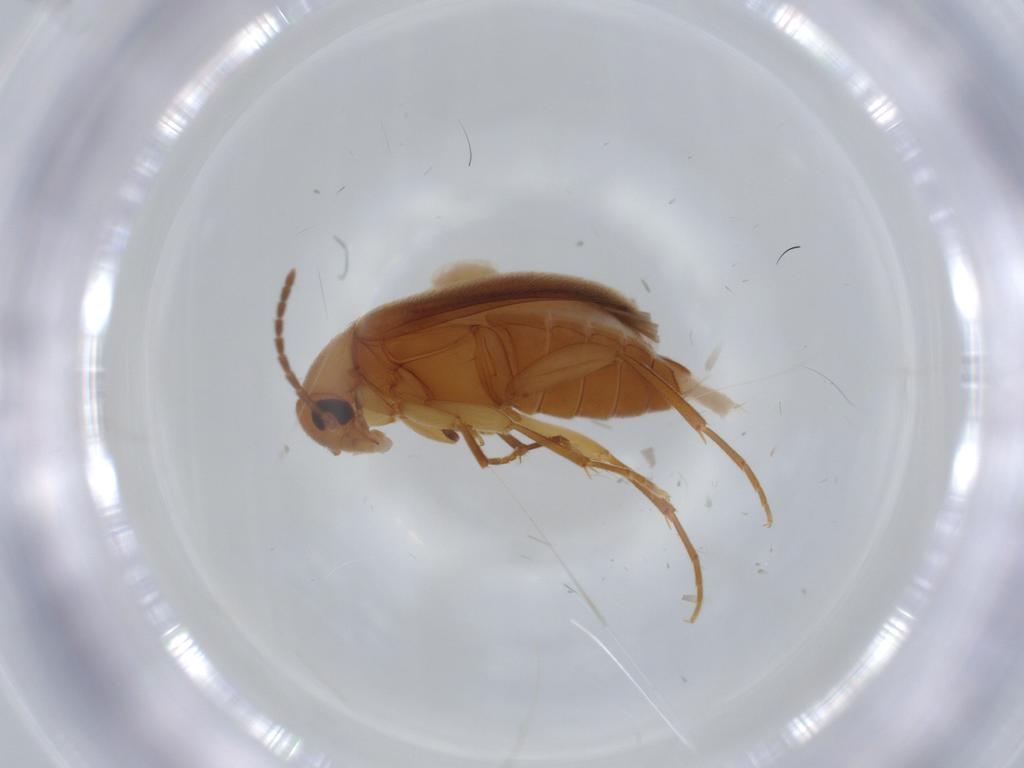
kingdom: Animalia
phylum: Arthropoda
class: Insecta
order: Coleoptera
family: Scraptiidae
